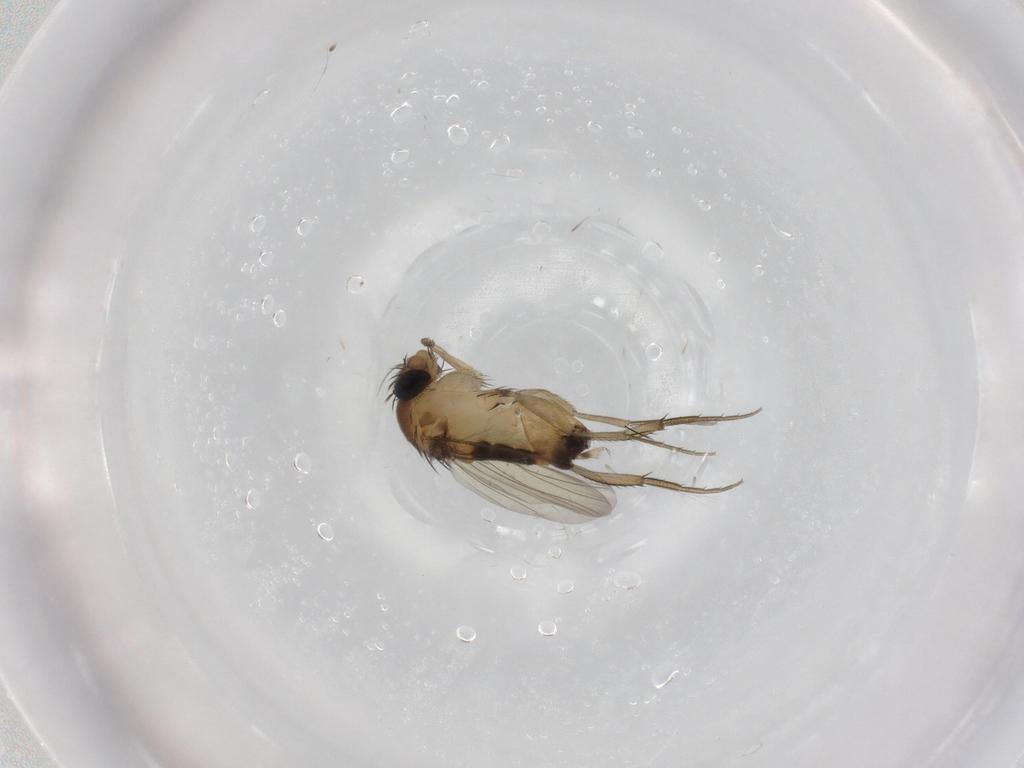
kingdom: Animalia
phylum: Arthropoda
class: Insecta
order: Diptera
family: Phoridae
